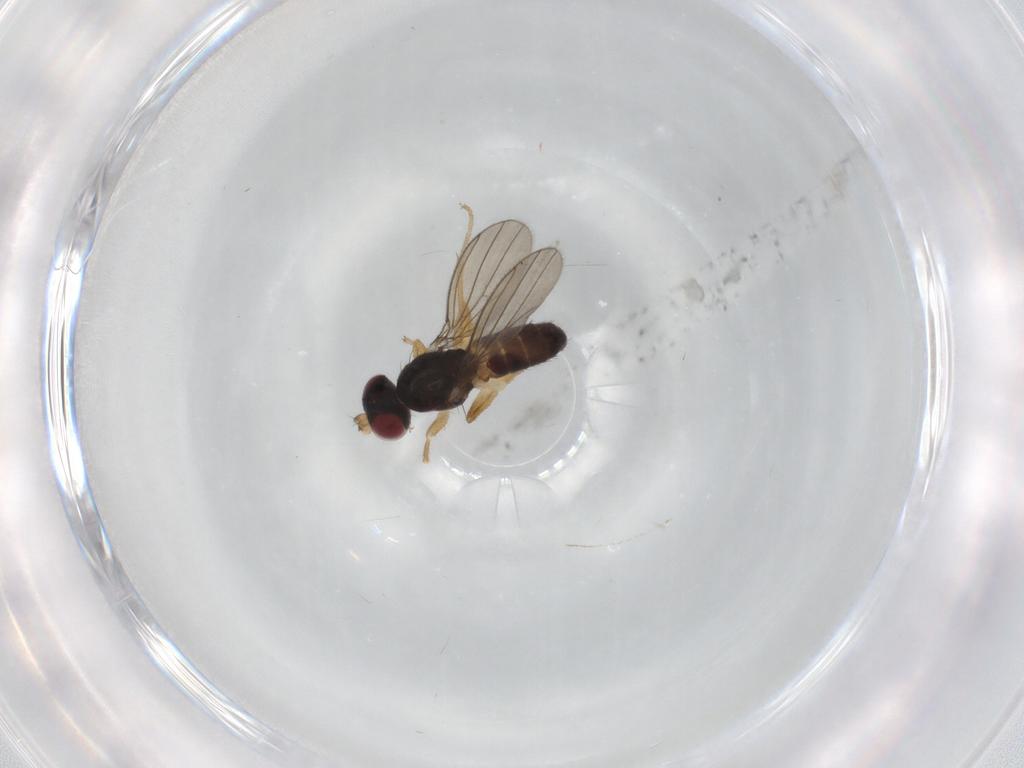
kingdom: Animalia
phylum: Arthropoda
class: Insecta
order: Diptera
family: Anthomyzidae
